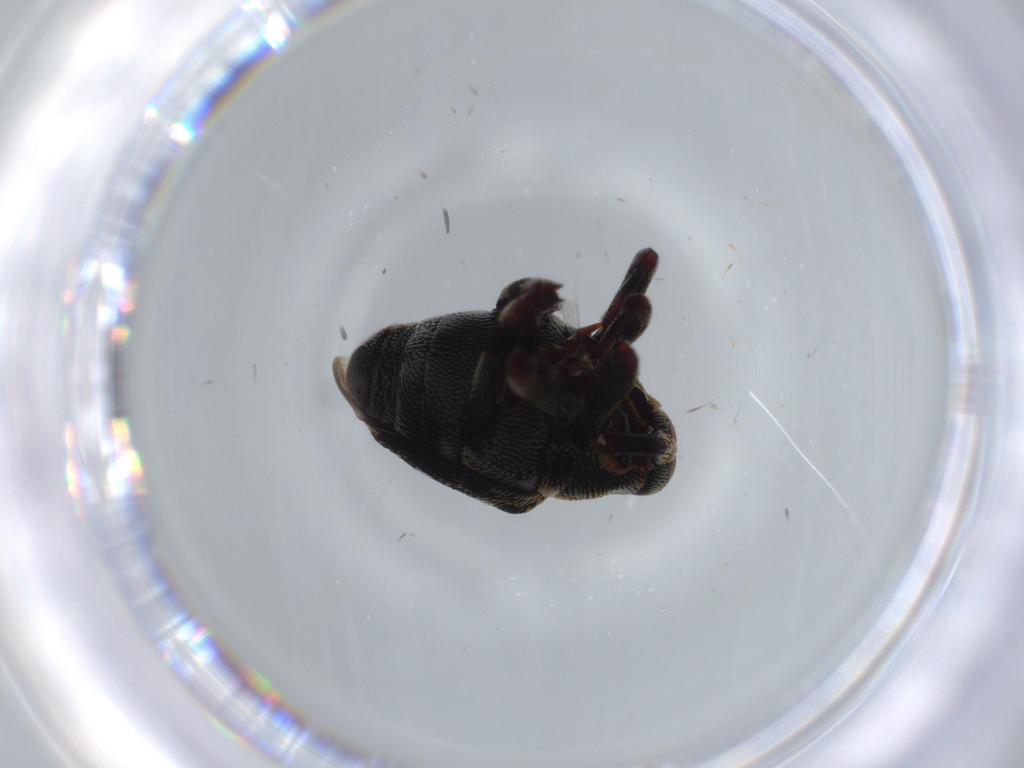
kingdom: Animalia
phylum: Arthropoda
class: Insecta
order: Coleoptera
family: Curculionidae
